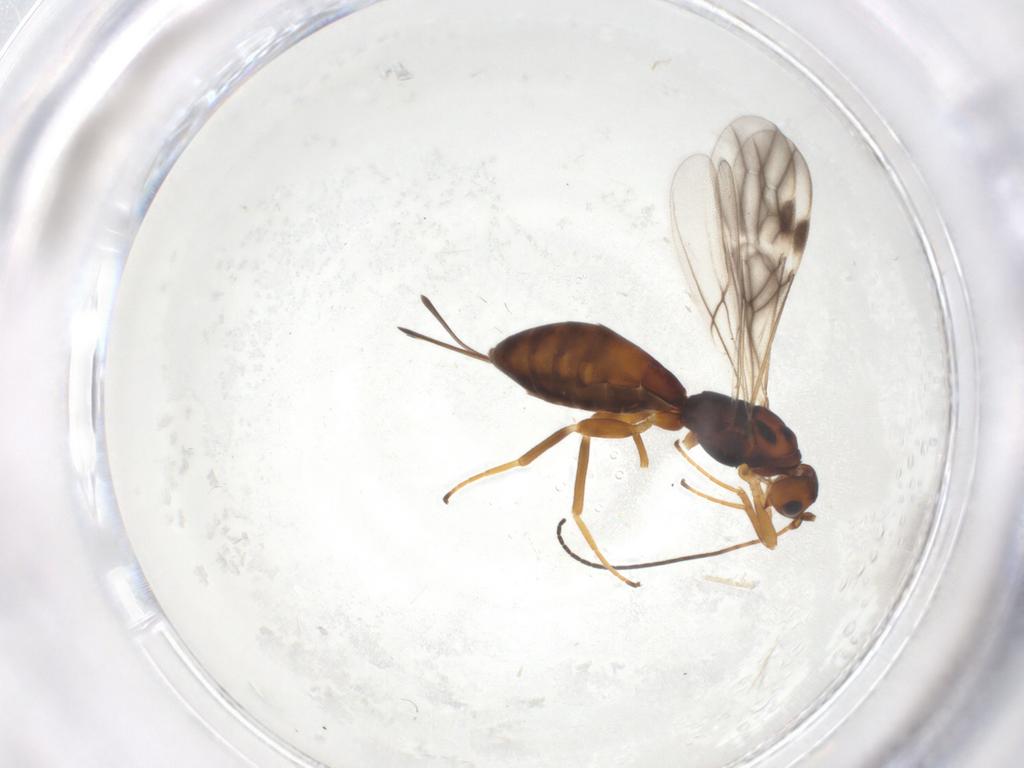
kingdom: Animalia
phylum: Arthropoda
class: Insecta
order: Hymenoptera
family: Braconidae
